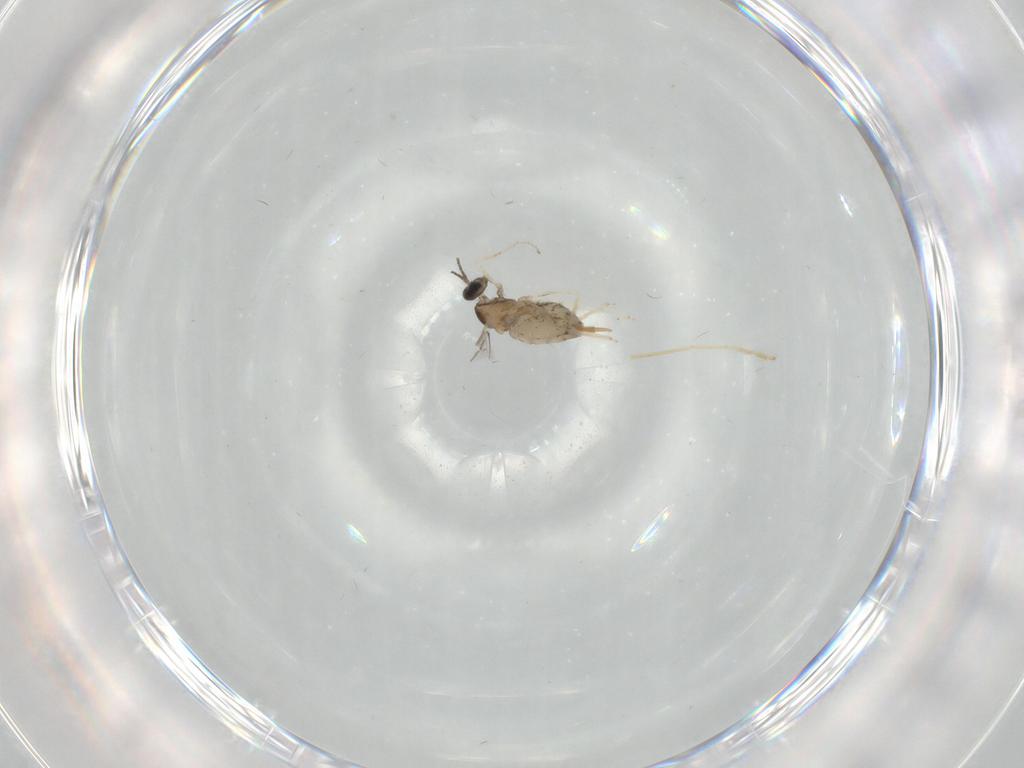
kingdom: Animalia
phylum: Arthropoda
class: Insecta
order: Diptera
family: Cecidomyiidae
